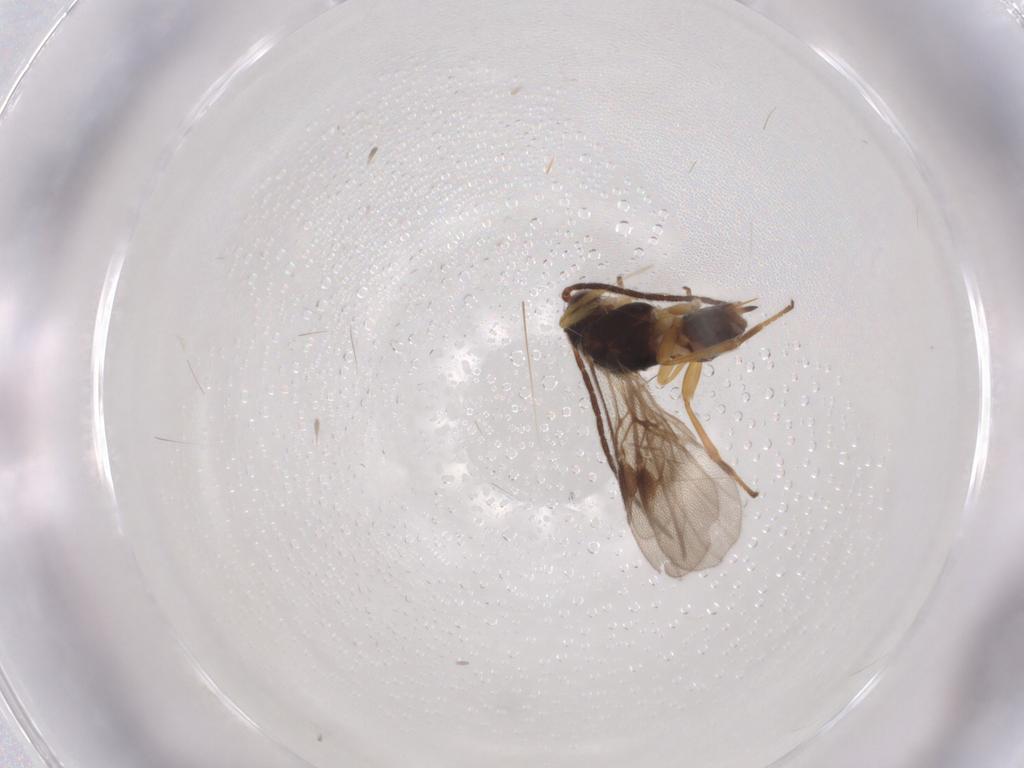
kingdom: Animalia
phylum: Arthropoda
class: Insecta
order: Hymenoptera
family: Braconidae
